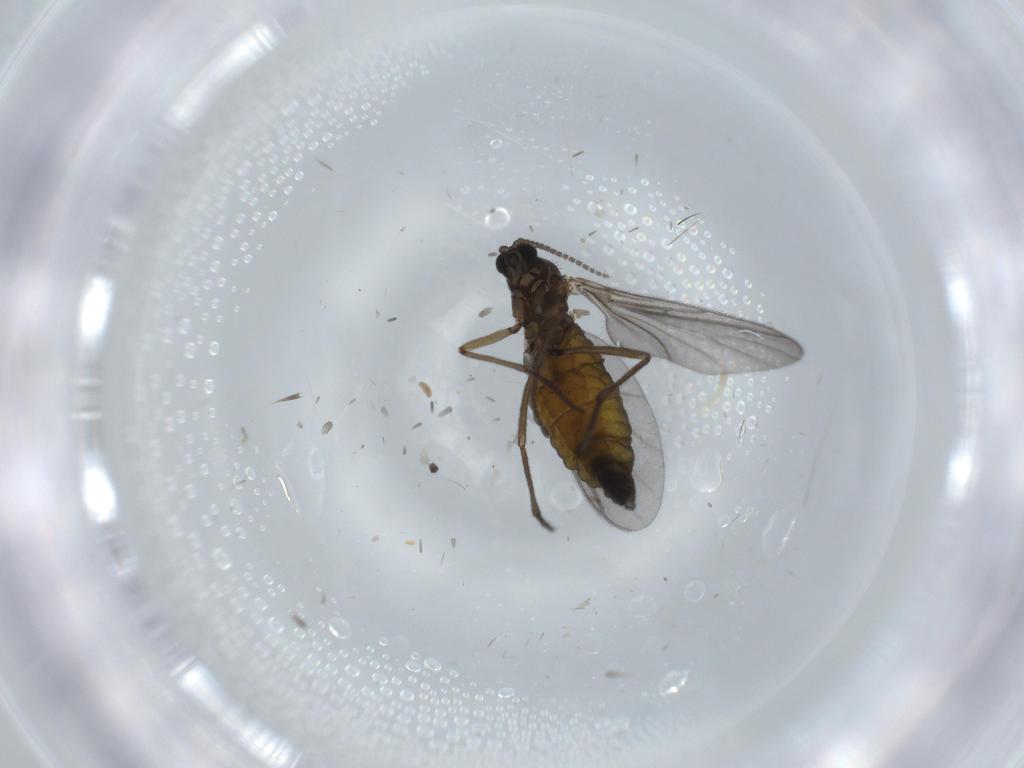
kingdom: Animalia
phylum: Arthropoda
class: Insecta
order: Diptera
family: Sciaridae
